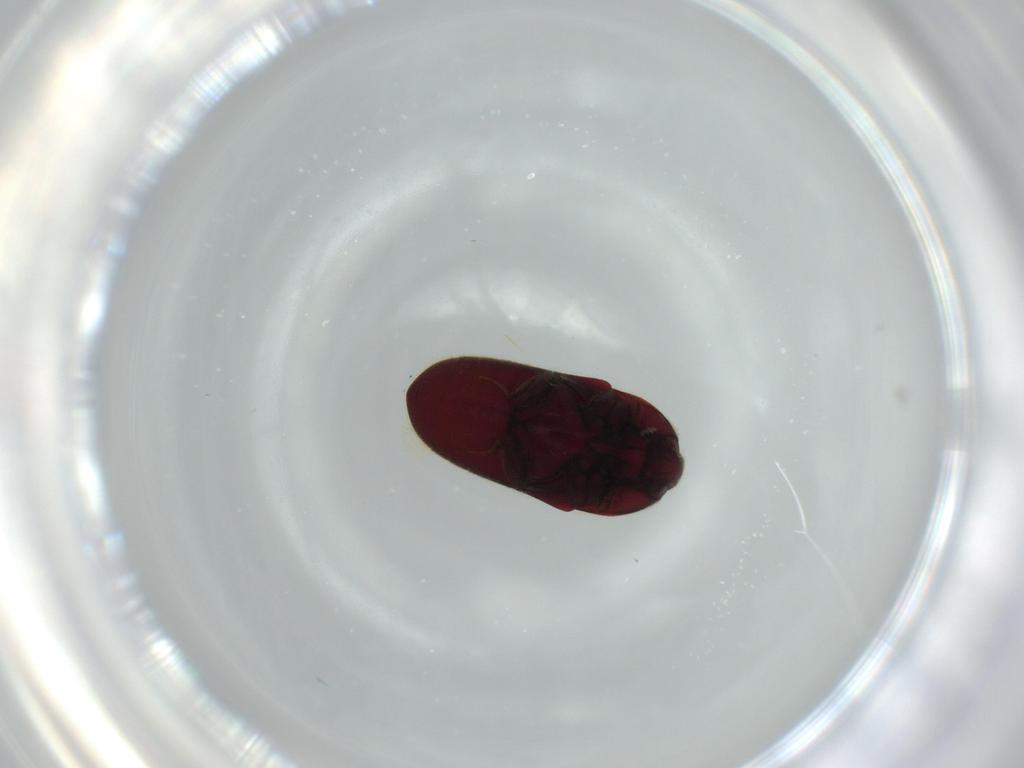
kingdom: Animalia
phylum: Arthropoda
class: Insecta
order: Coleoptera
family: Throscidae
